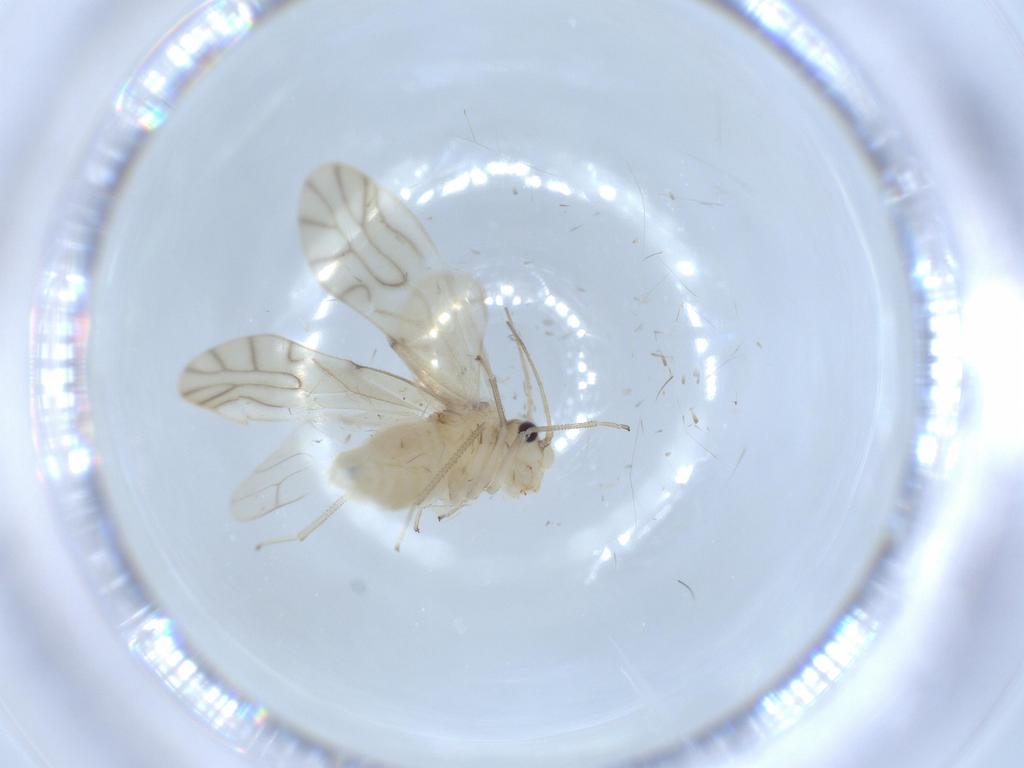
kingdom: Animalia
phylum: Arthropoda
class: Insecta
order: Psocodea
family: Caeciliusidae
